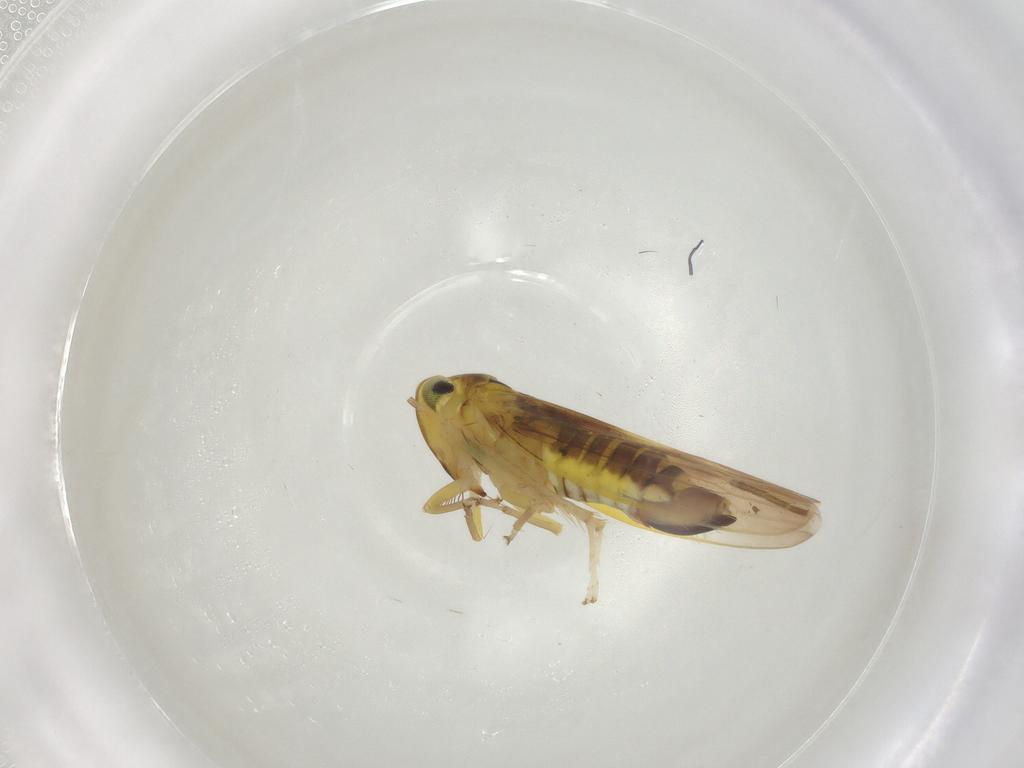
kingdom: Animalia
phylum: Arthropoda
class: Insecta
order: Hemiptera
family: Cicadellidae
